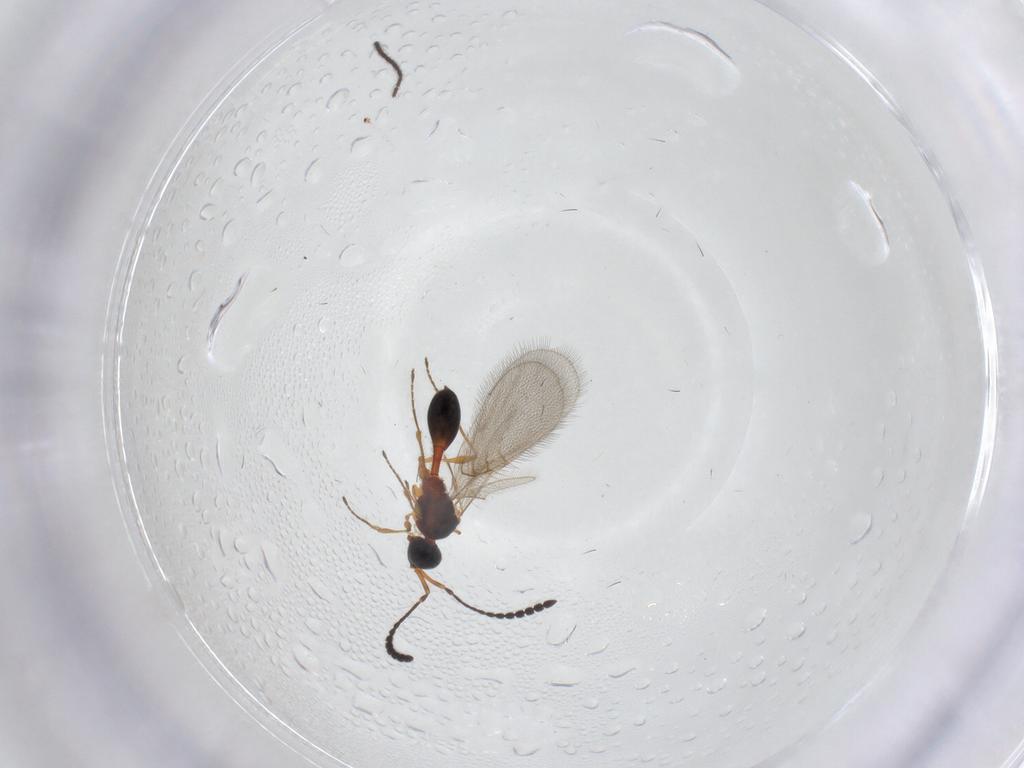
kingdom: Animalia
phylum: Arthropoda
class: Insecta
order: Hymenoptera
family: Diapriidae
